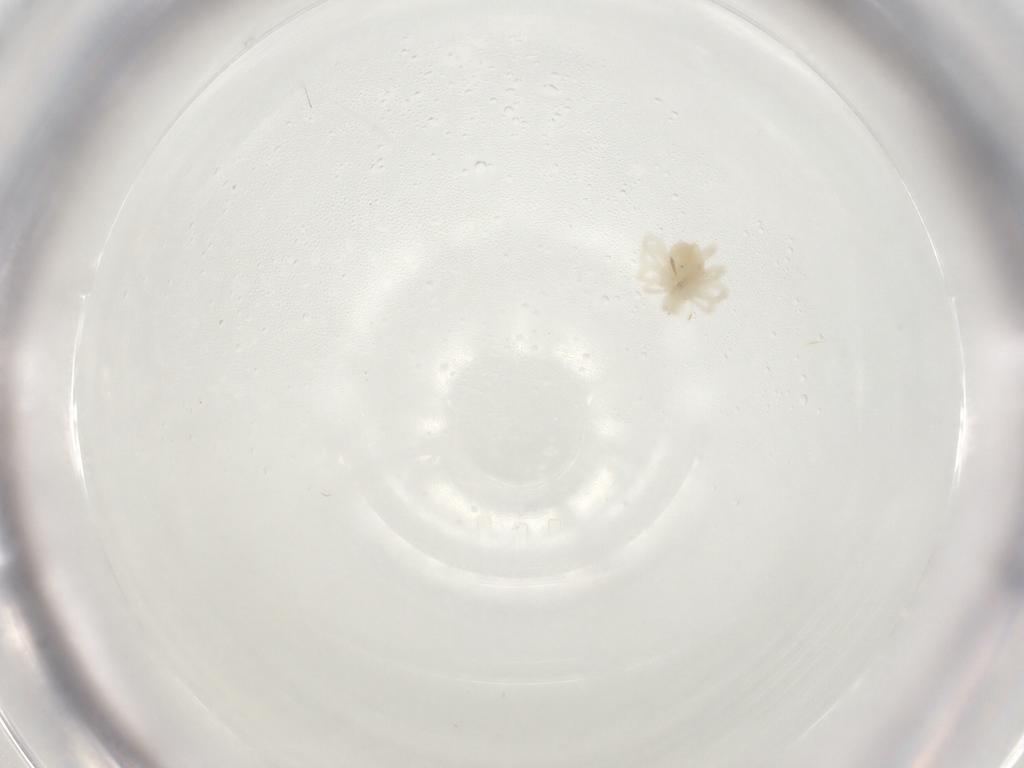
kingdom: Animalia
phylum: Arthropoda
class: Arachnida
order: Trombidiformes
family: Anystidae
